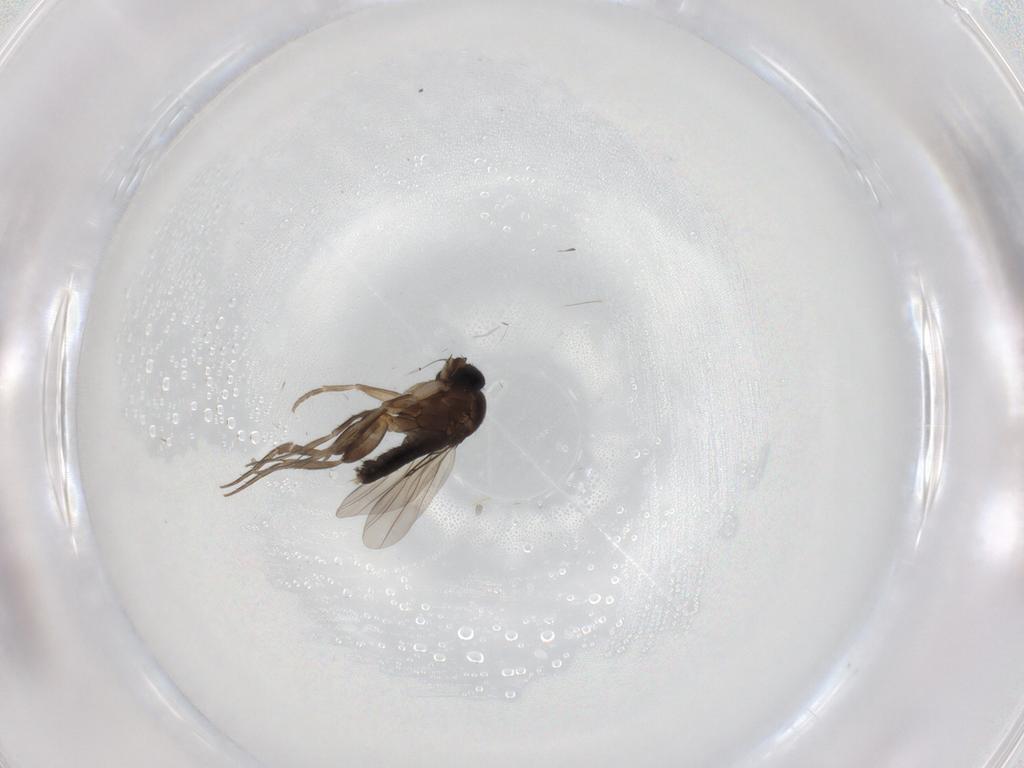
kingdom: Animalia
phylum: Arthropoda
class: Insecta
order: Diptera
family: Phoridae
